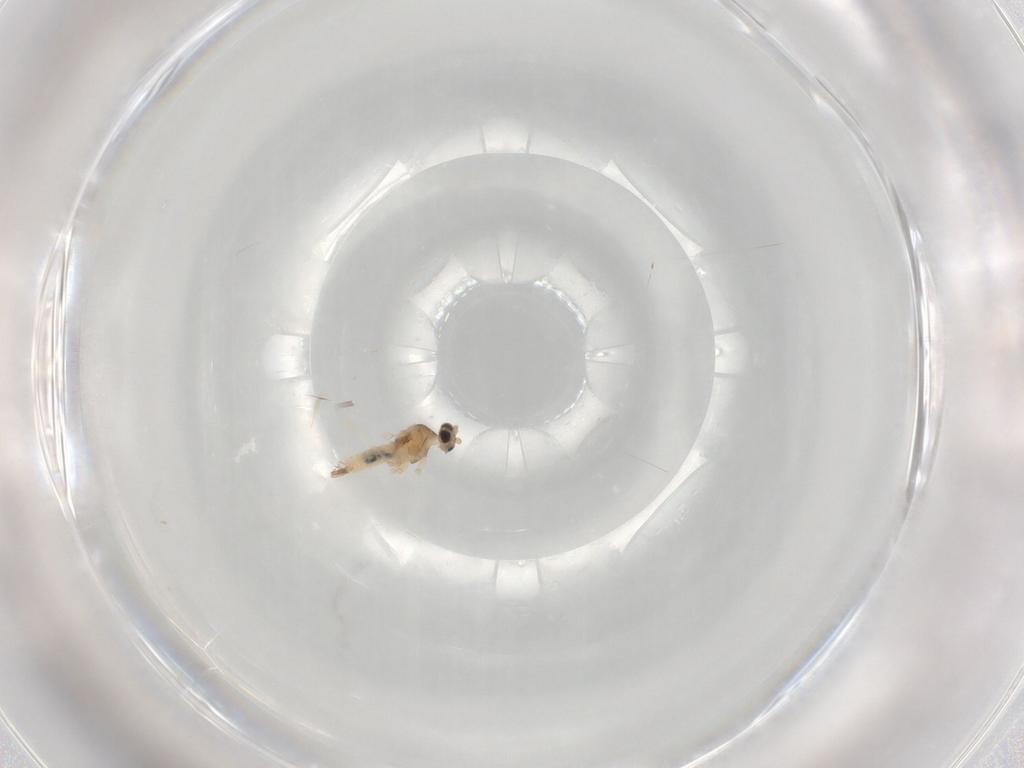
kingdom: Animalia
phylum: Arthropoda
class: Insecta
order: Diptera
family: Cecidomyiidae
